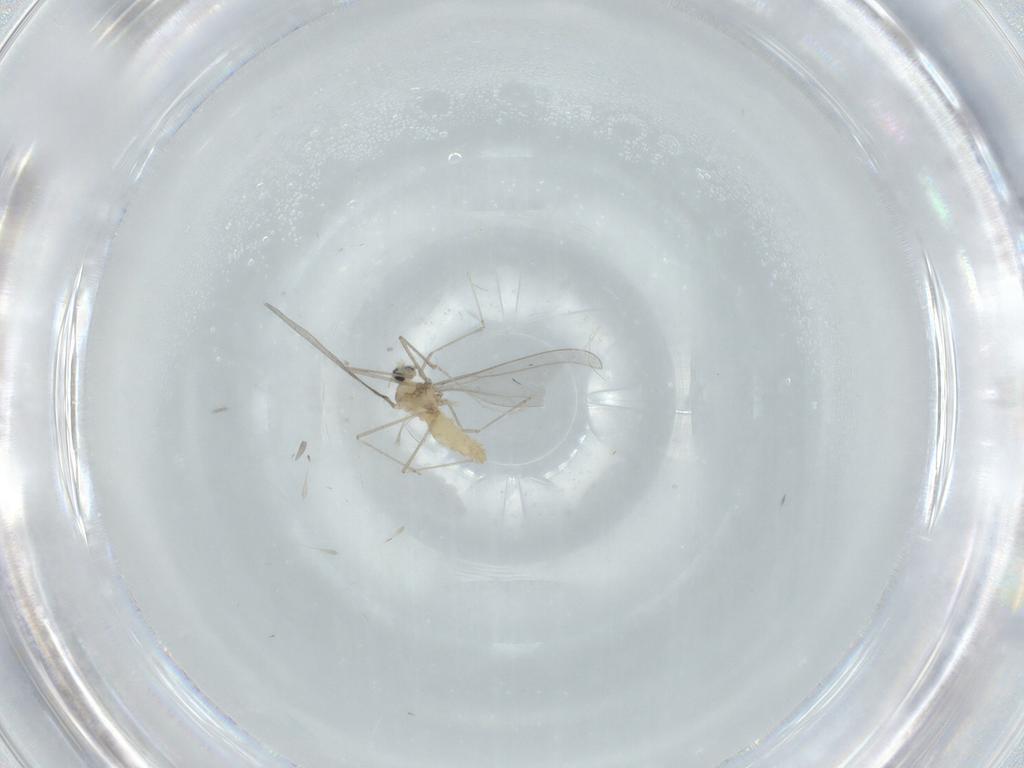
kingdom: Animalia
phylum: Arthropoda
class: Insecta
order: Diptera
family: Cecidomyiidae
